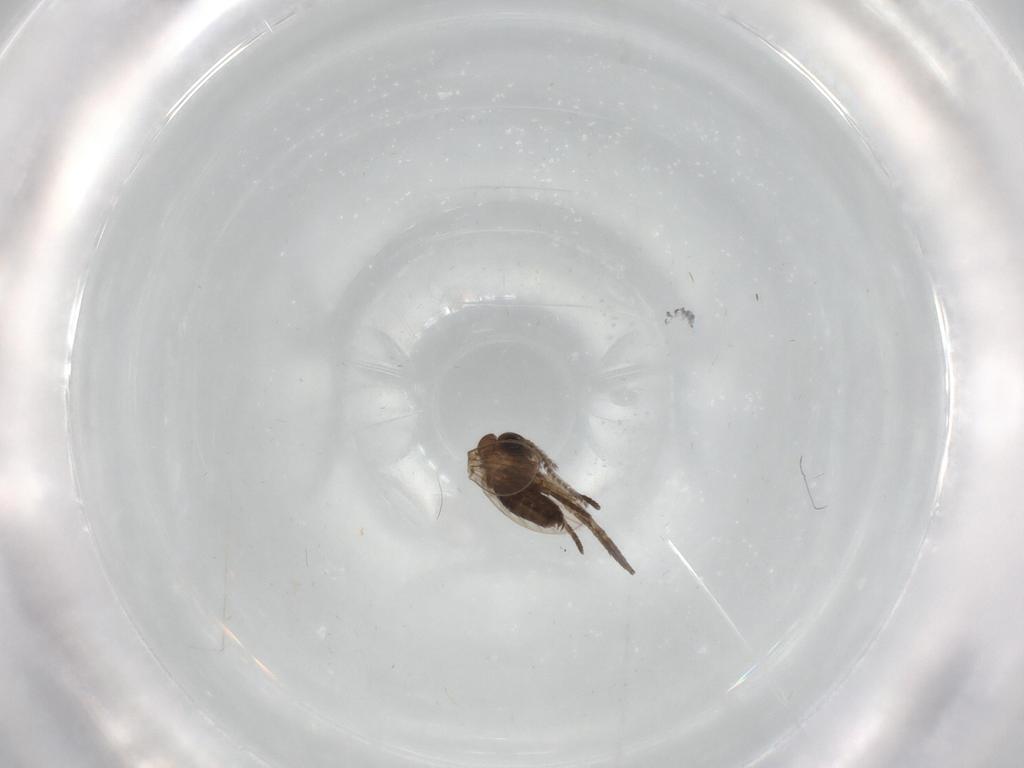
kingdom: Animalia
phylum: Arthropoda
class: Insecta
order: Diptera
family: Cecidomyiidae
